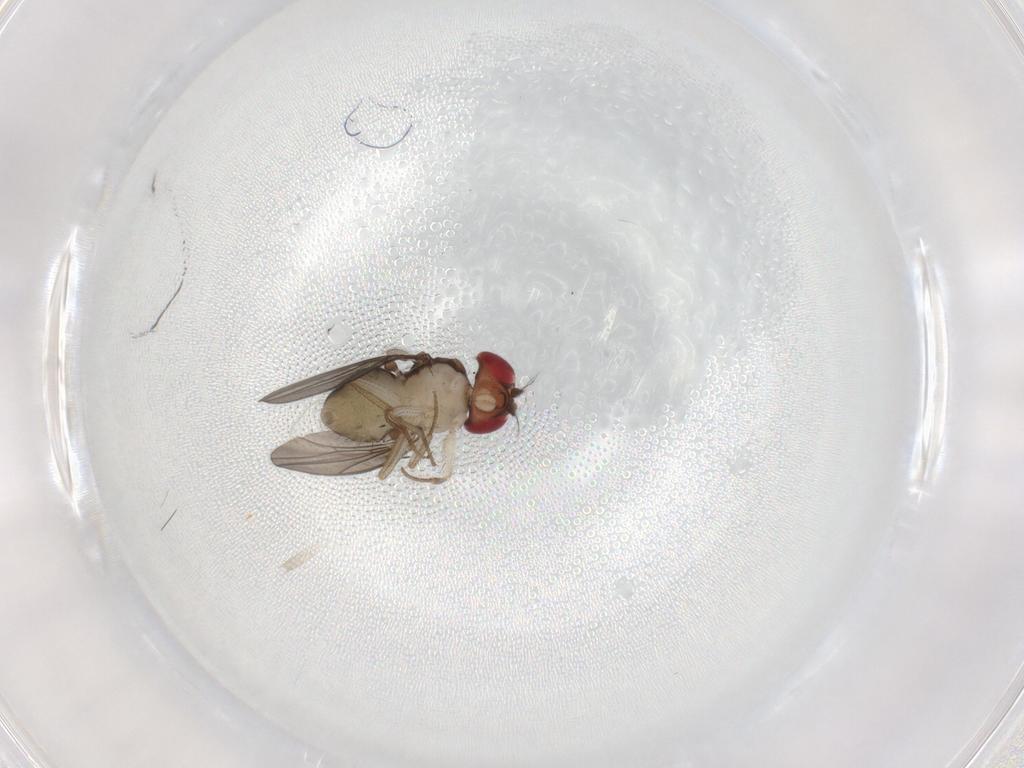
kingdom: Animalia
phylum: Arthropoda
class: Insecta
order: Diptera
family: Drosophilidae
